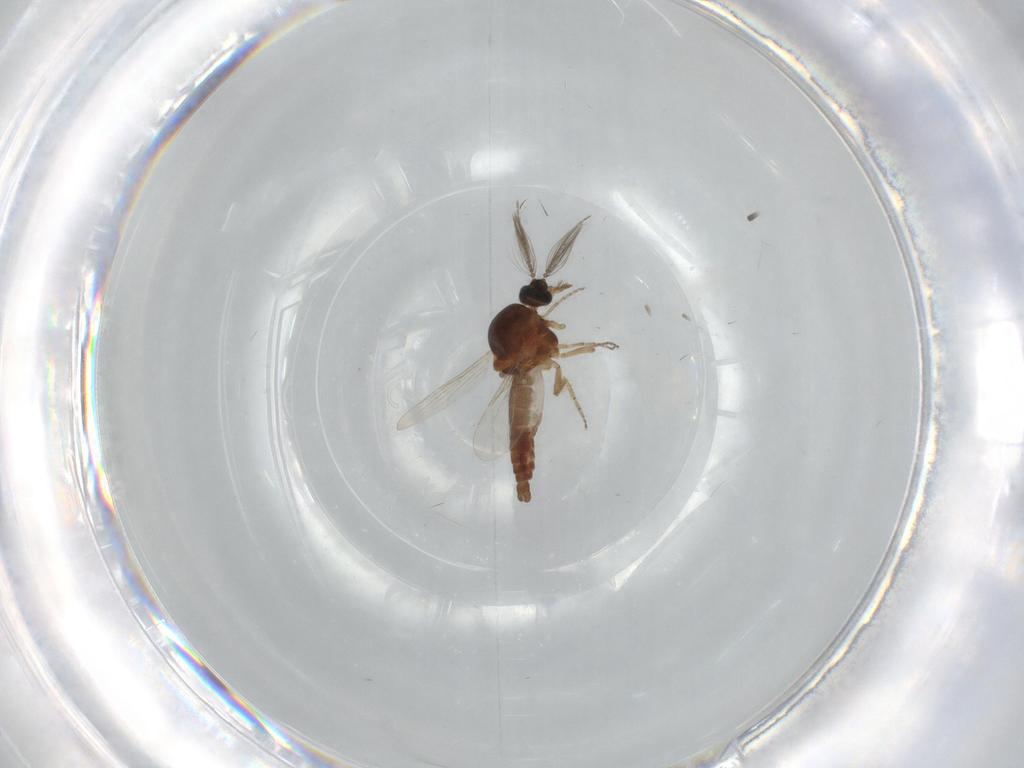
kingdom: Animalia
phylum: Arthropoda
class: Insecta
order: Diptera
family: Ceratopogonidae
